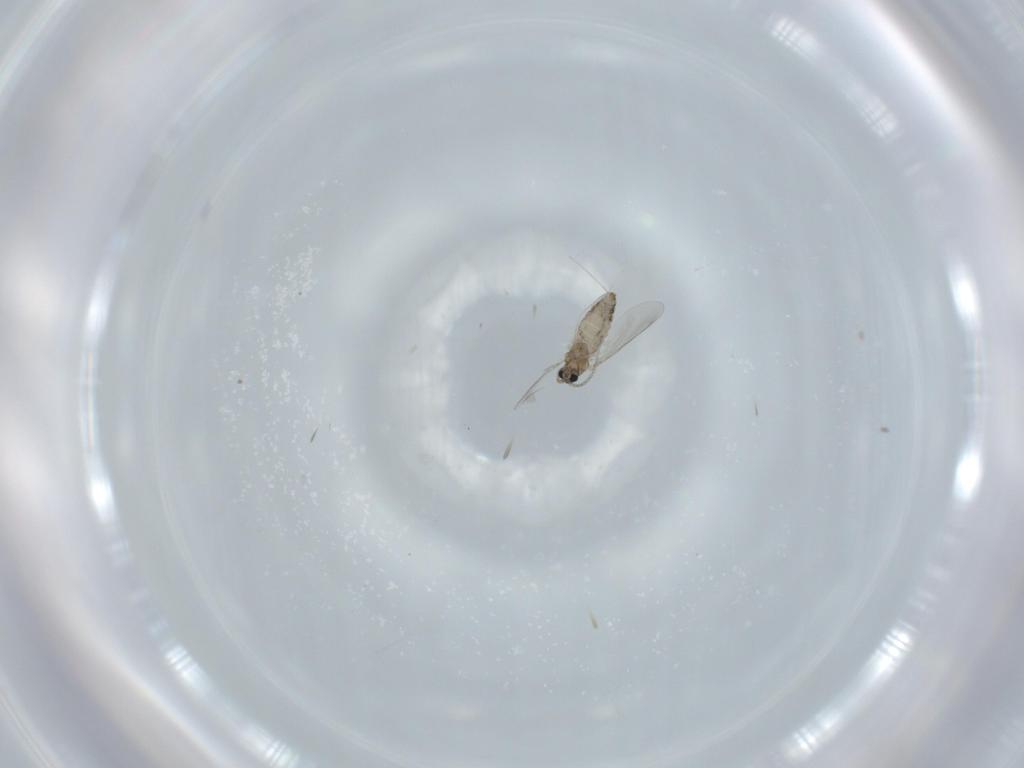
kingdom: Animalia
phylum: Arthropoda
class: Insecta
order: Diptera
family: Cecidomyiidae
